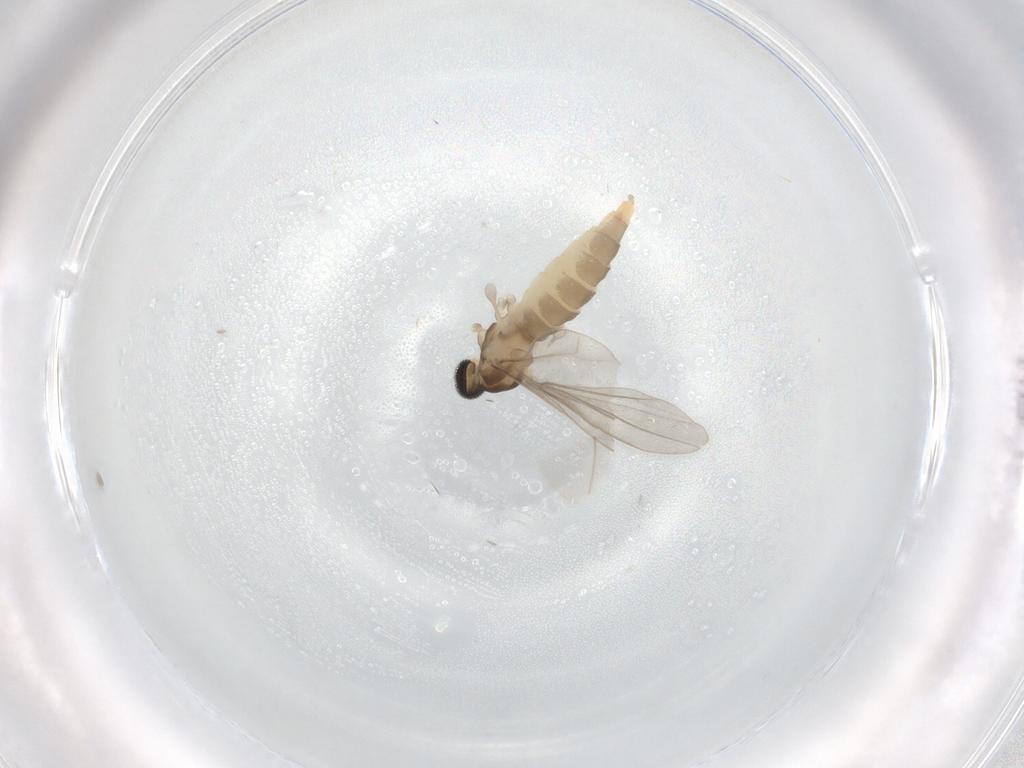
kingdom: Animalia
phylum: Arthropoda
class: Insecta
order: Diptera
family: Cecidomyiidae
